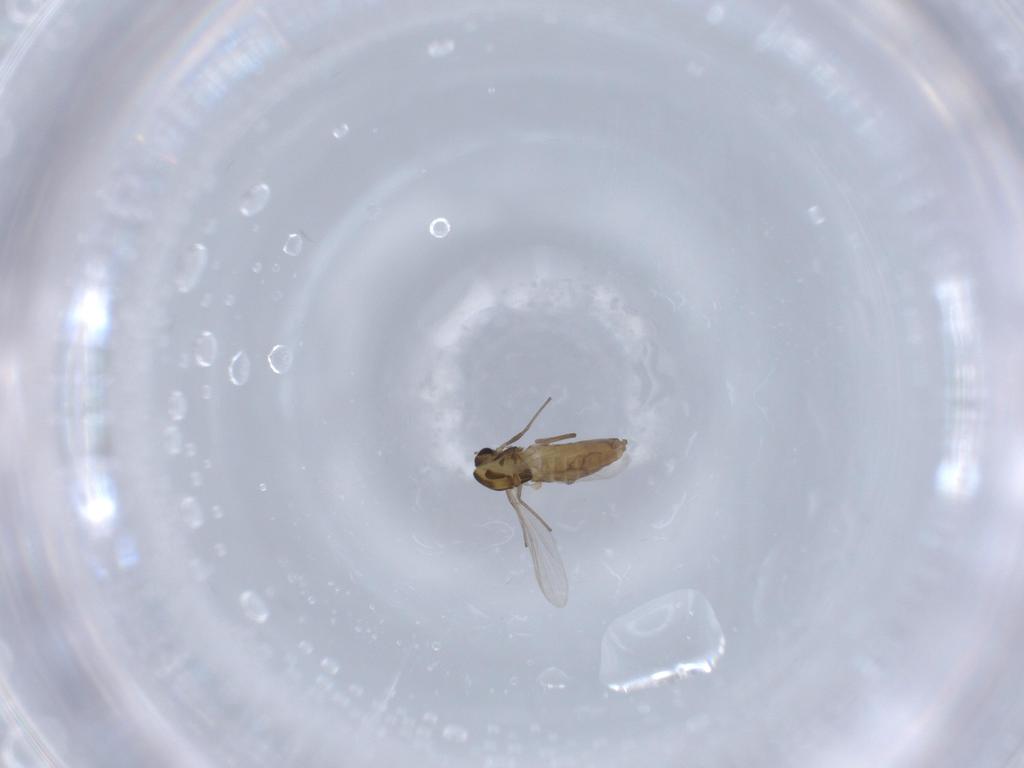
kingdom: Animalia
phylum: Arthropoda
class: Insecta
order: Diptera
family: Chironomidae
